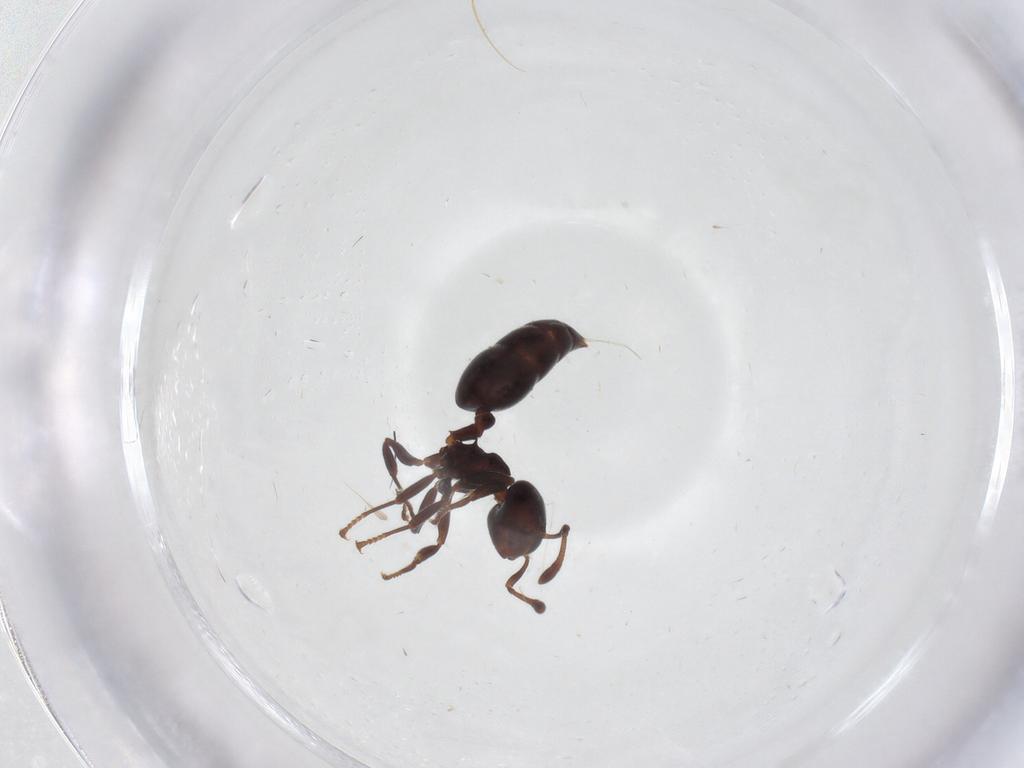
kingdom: Animalia
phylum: Arthropoda
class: Insecta
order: Hymenoptera
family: Formicidae
